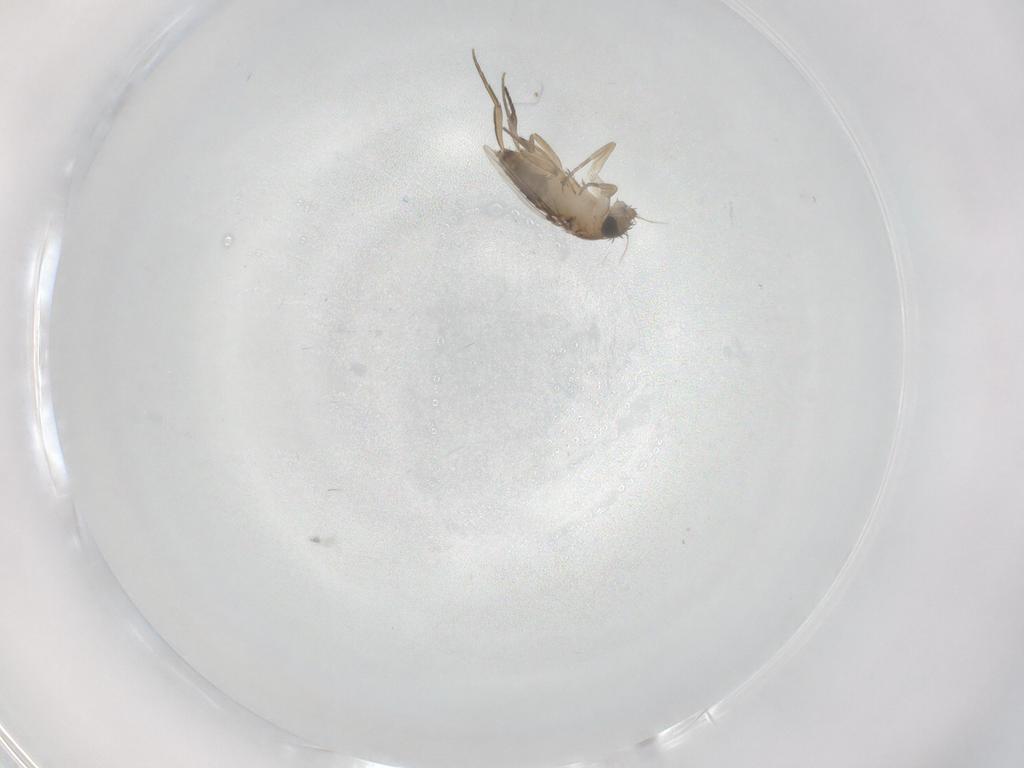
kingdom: Animalia
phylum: Arthropoda
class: Insecta
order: Diptera
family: Phoridae
